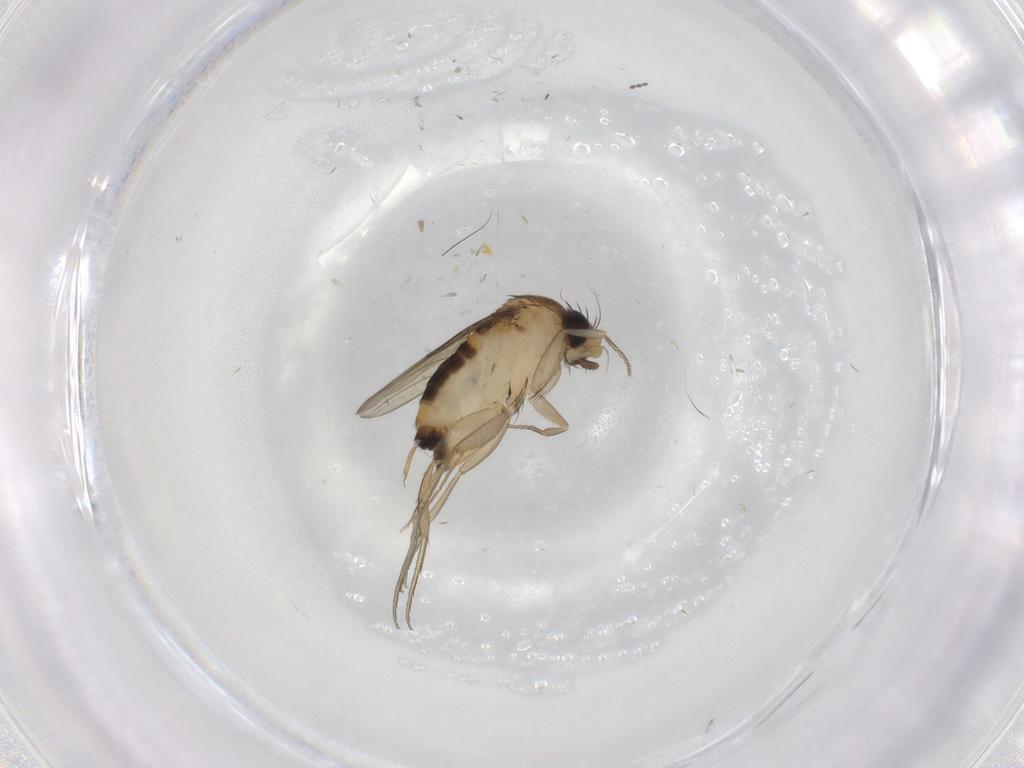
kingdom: Animalia
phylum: Arthropoda
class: Insecta
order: Diptera
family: Phoridae
